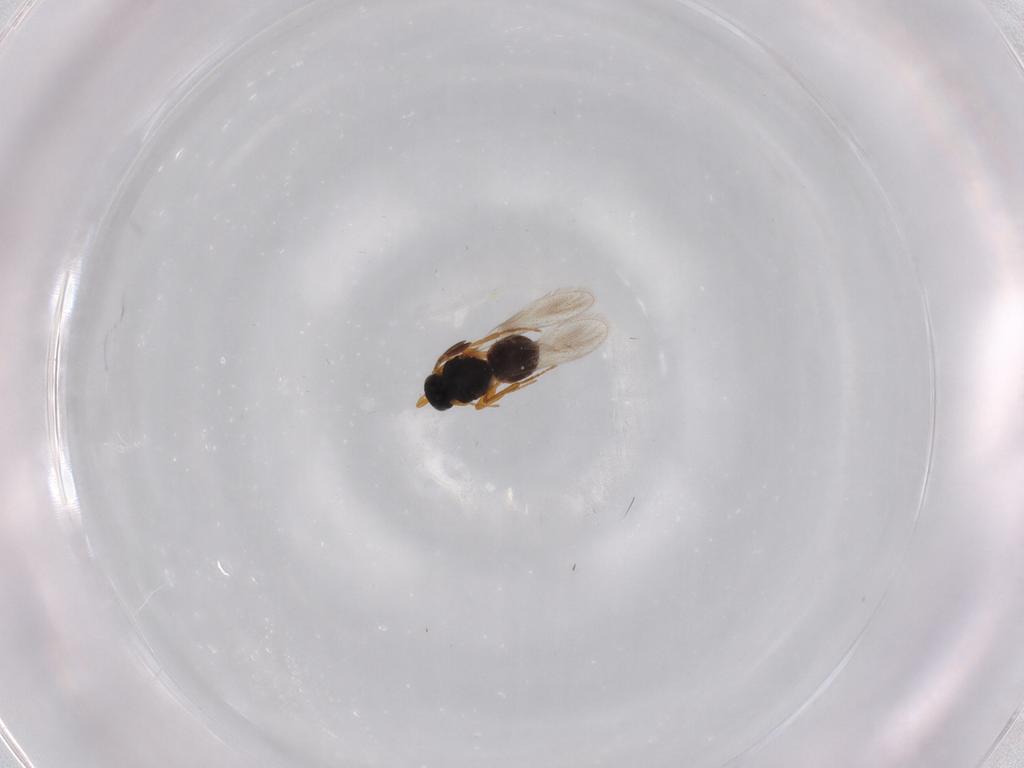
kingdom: Animalia
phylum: Arthropoda
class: Insecta
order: Hymenoptera
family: Platygastridae
